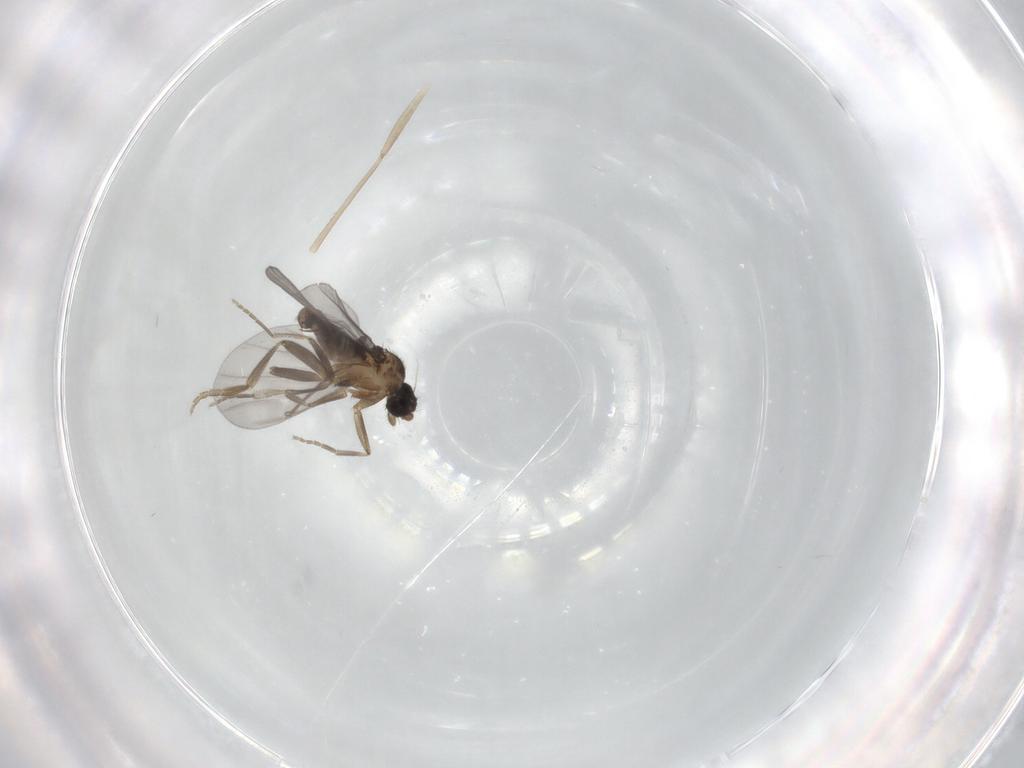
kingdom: Animalia
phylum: Arthropoda
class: Insecta
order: Diptera
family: Phoridae
